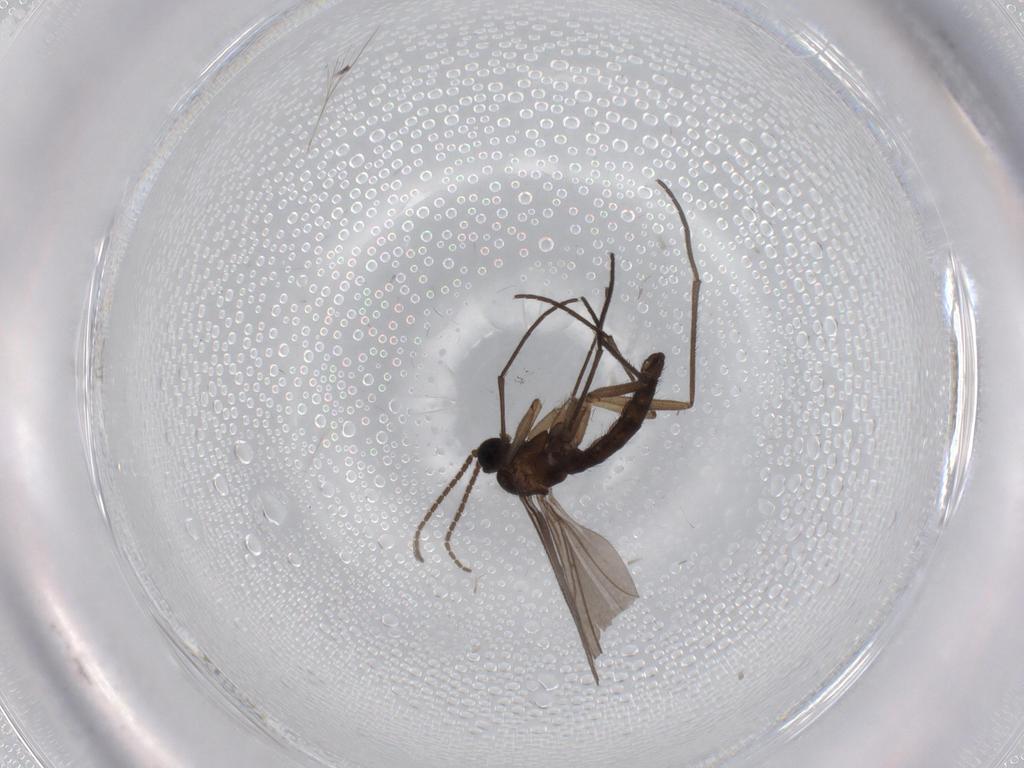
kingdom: Animalia
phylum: Arthropoda
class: Insecta
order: Diptera
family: Sciaridae
